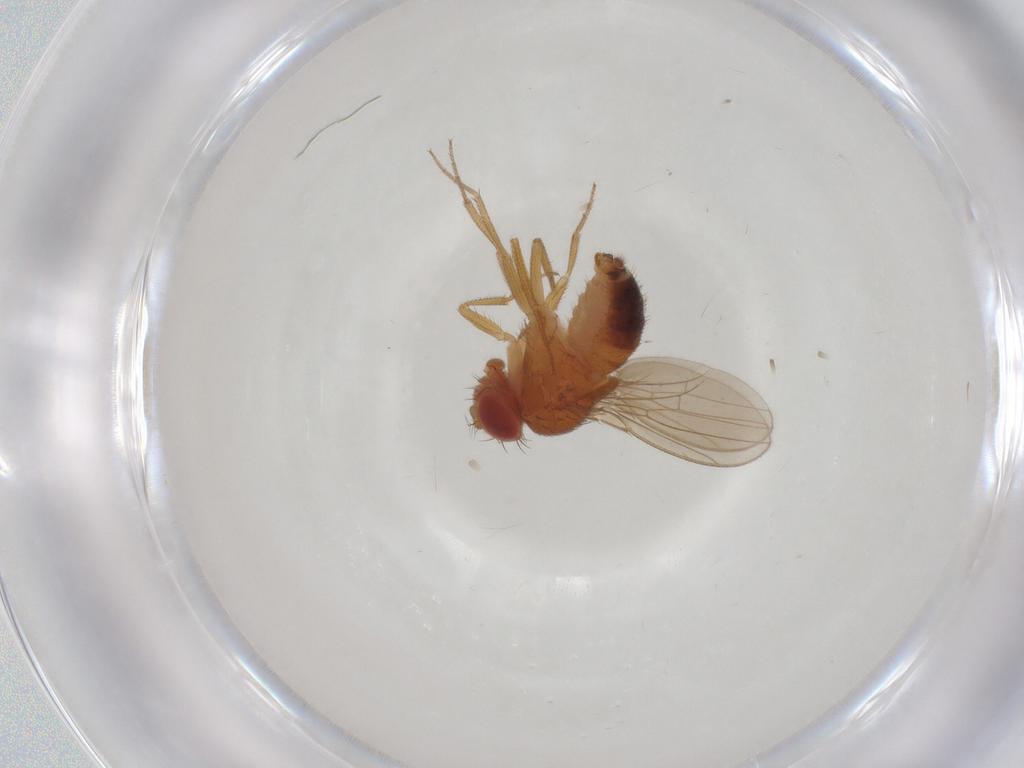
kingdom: Animalia
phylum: Arthropoda
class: Insecta
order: Diptera
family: Drosophilidae
